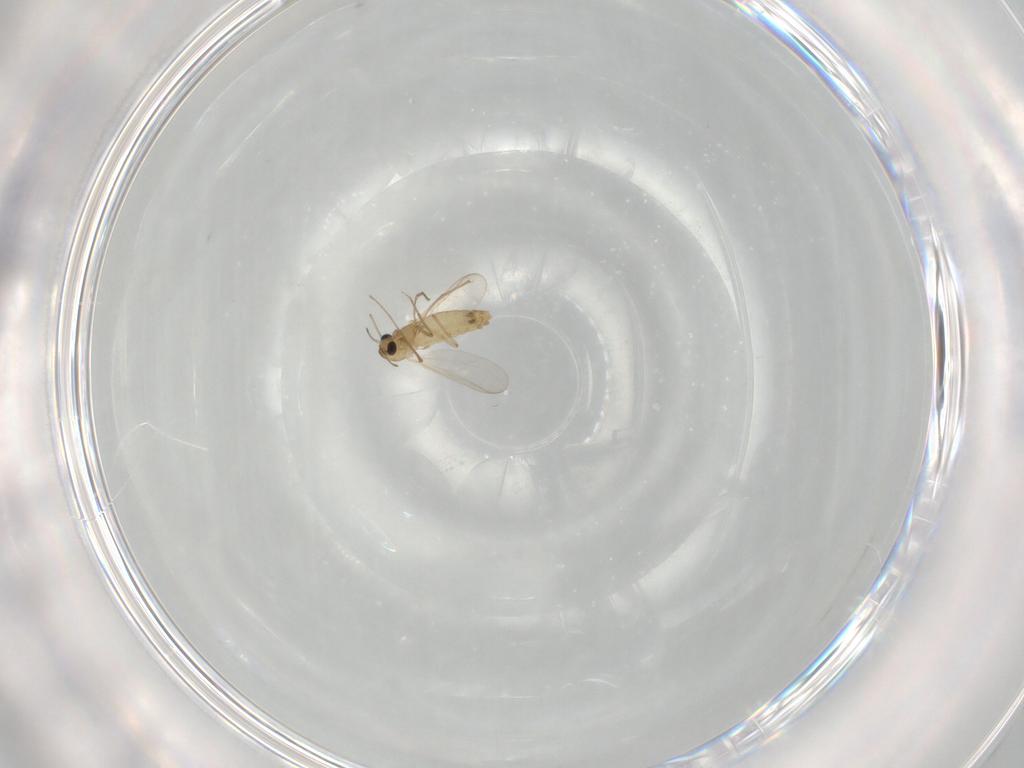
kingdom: Animalia
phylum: Arthropoda
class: Insecta
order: Diptera
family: Chironomidae
